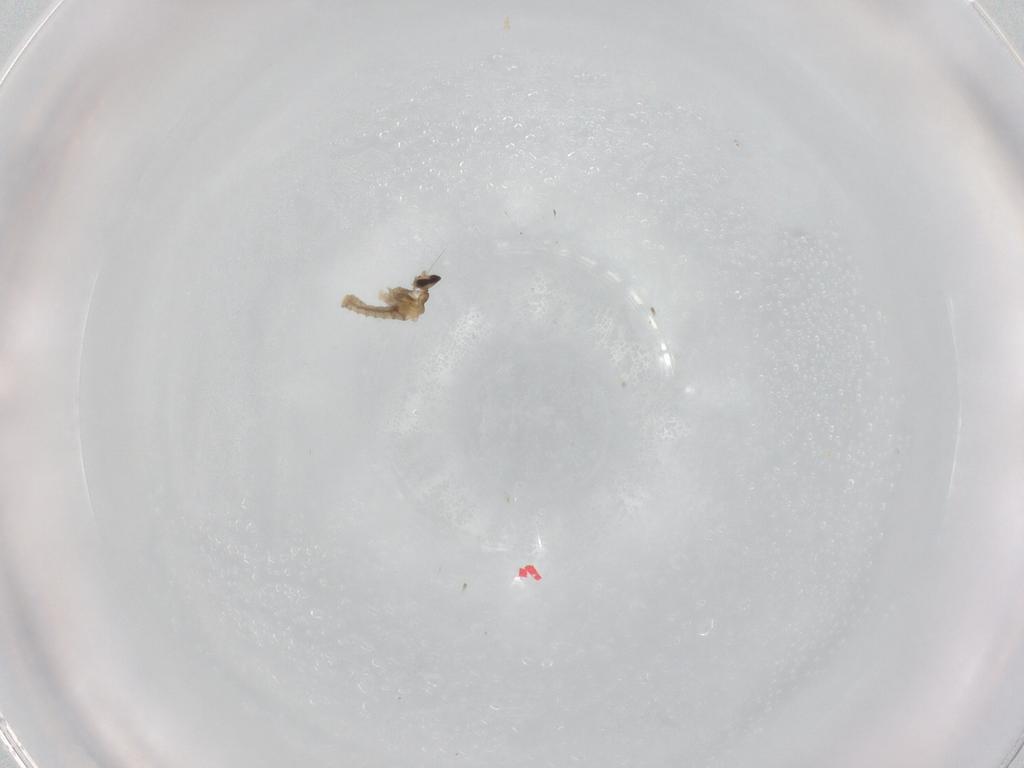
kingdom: Animalia
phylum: Arthropoda
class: Insecta
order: Diptera
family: Cecidomyiidae
